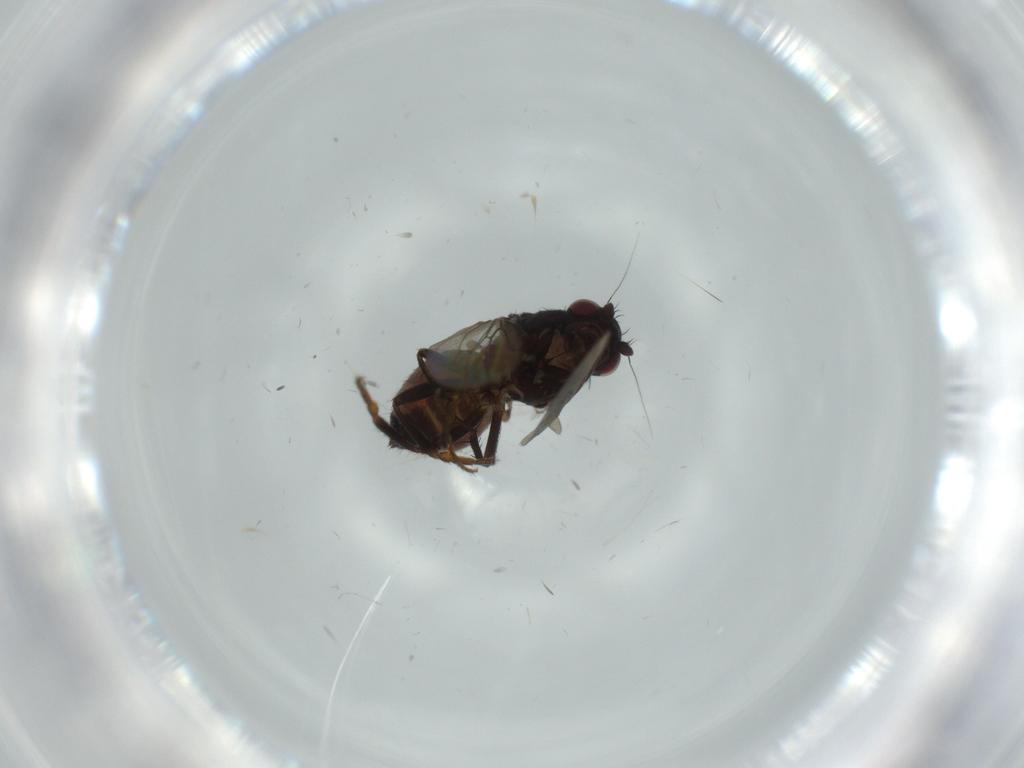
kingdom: Animalia
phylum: Arthropoda
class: Insecta
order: Diptera
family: Sphaeroceridae
